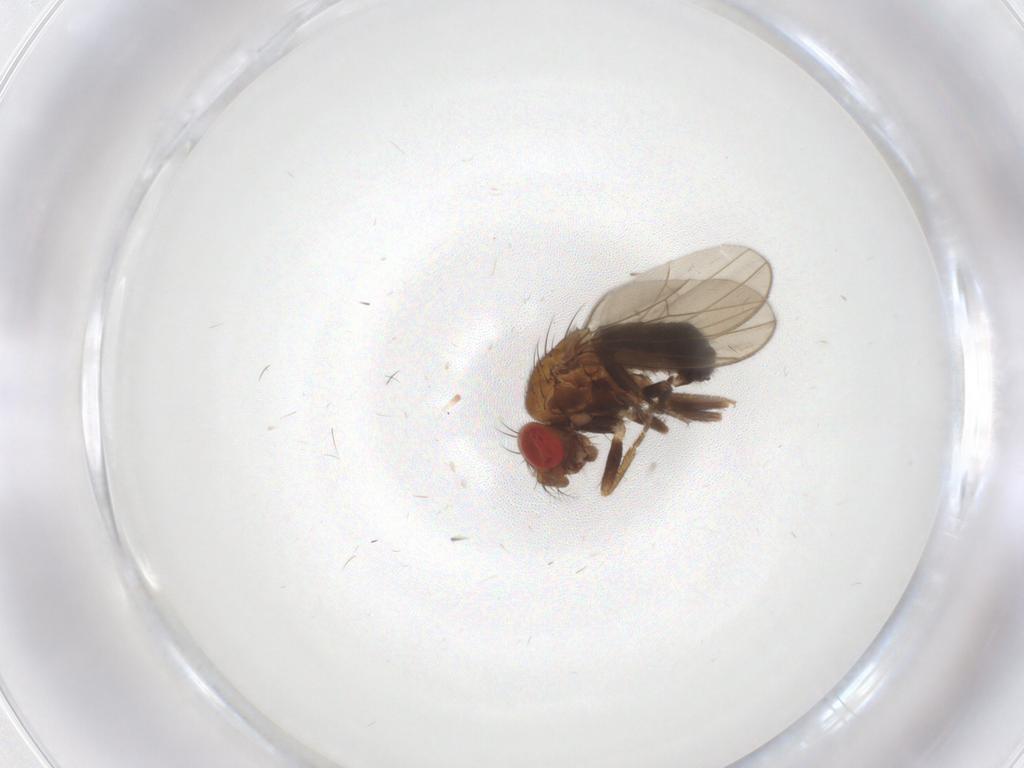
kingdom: Animalia
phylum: Arthropoda
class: Insecta
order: Diptera
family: Drosophilidae
